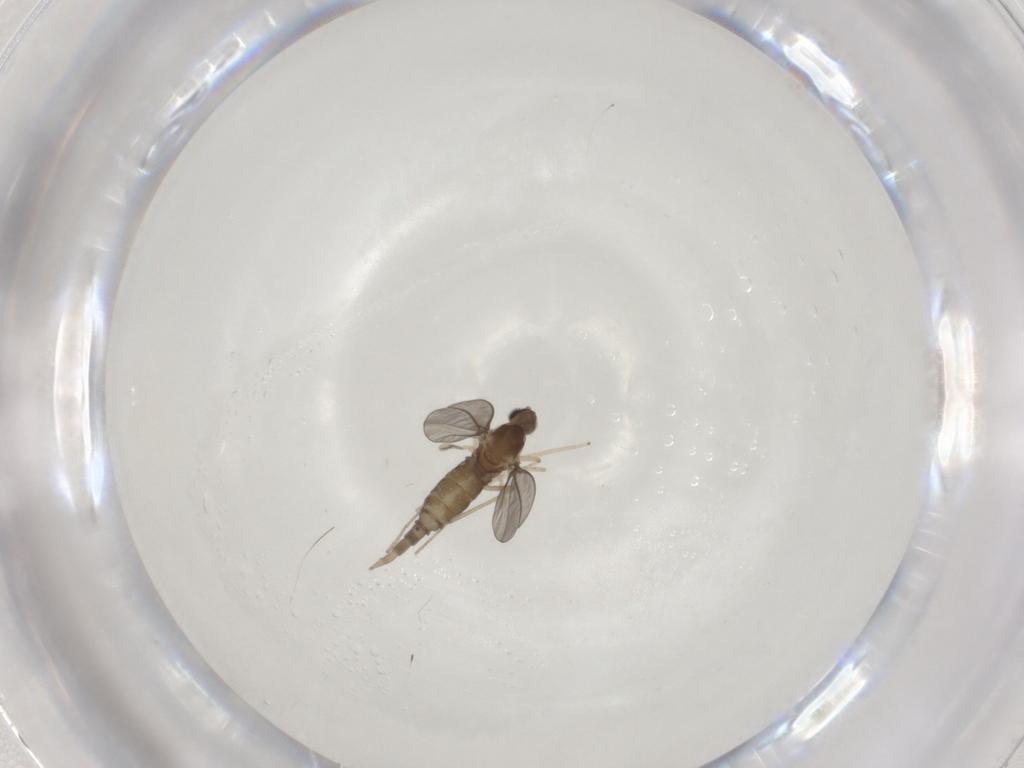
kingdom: Animalia
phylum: Arthropoda
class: Insecta
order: Diptera
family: Cecidomyiidae
